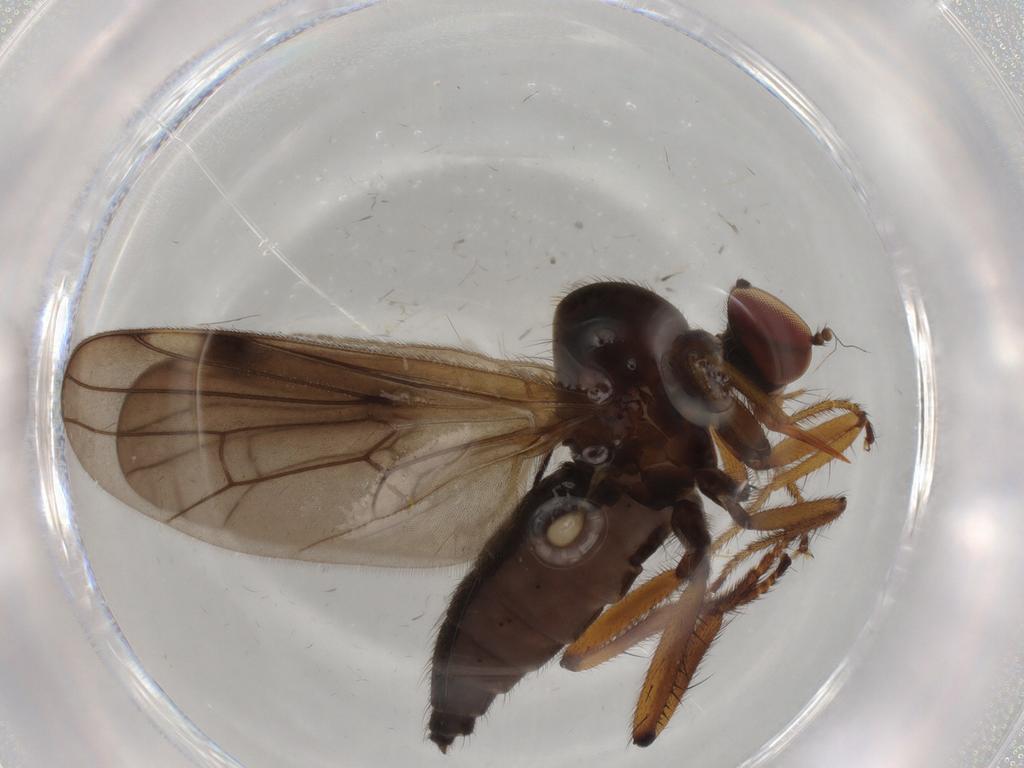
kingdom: Animalia
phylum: Arthropoda
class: Insecta
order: Diptera
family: Hybotidae
